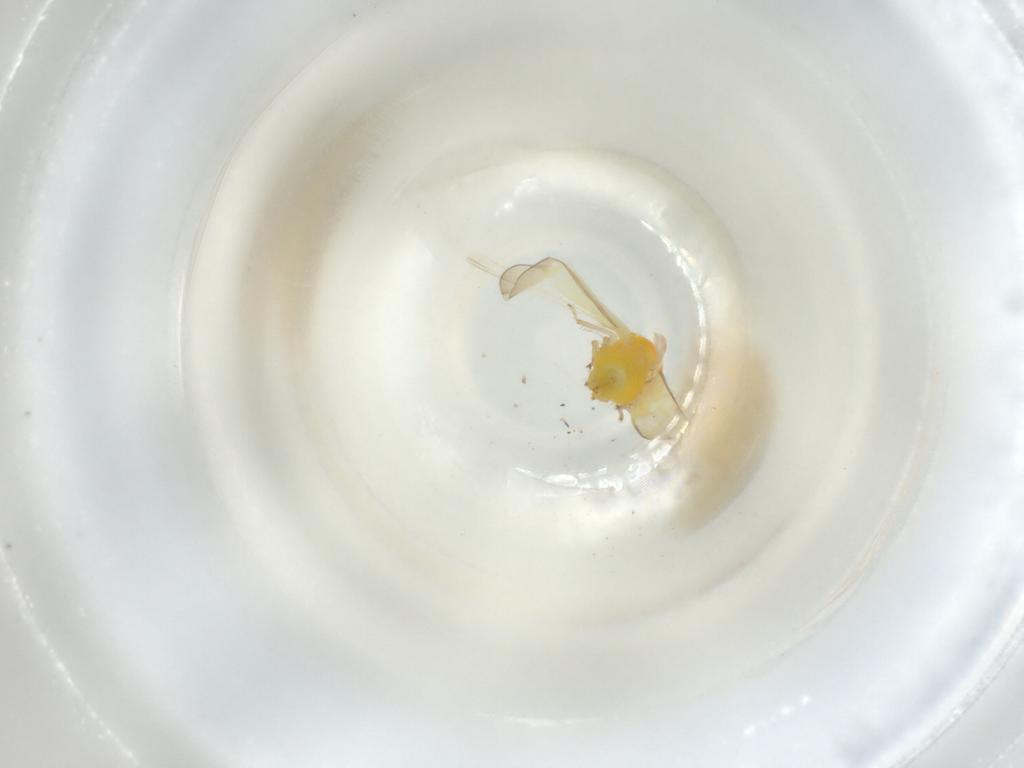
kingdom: Animalia
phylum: Arthropoda
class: Insecta
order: Hemiptera
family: Cicadellidae
